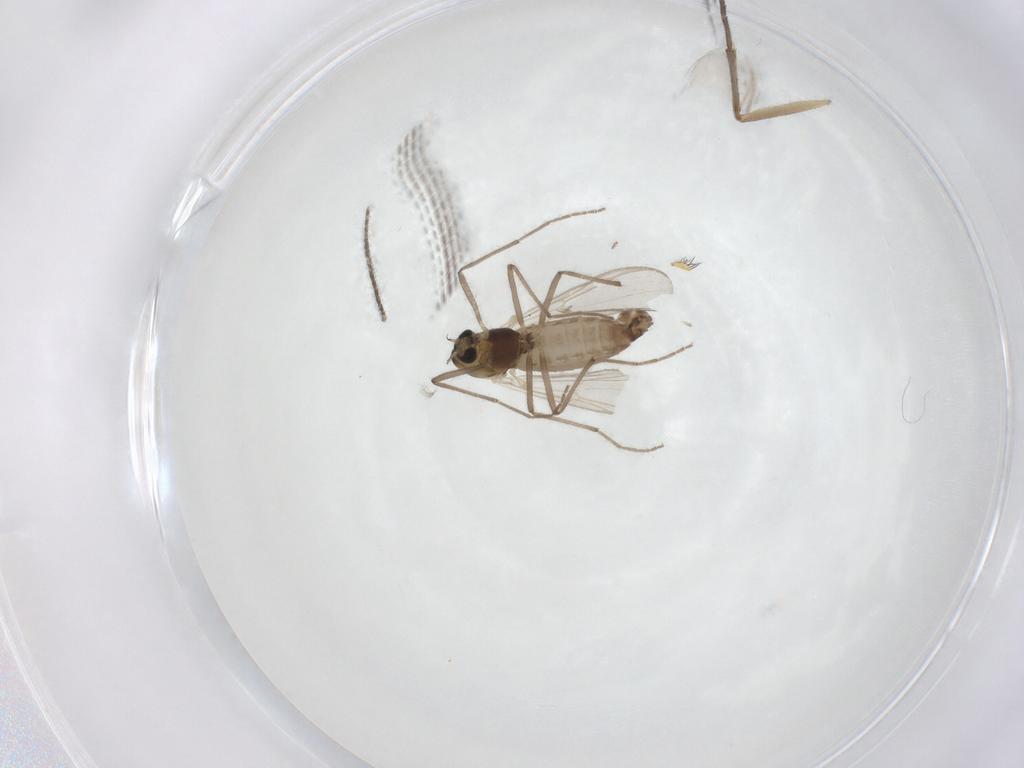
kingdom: Animalia
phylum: Arthropoda
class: Insecta
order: Diptera
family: Chironomidae
